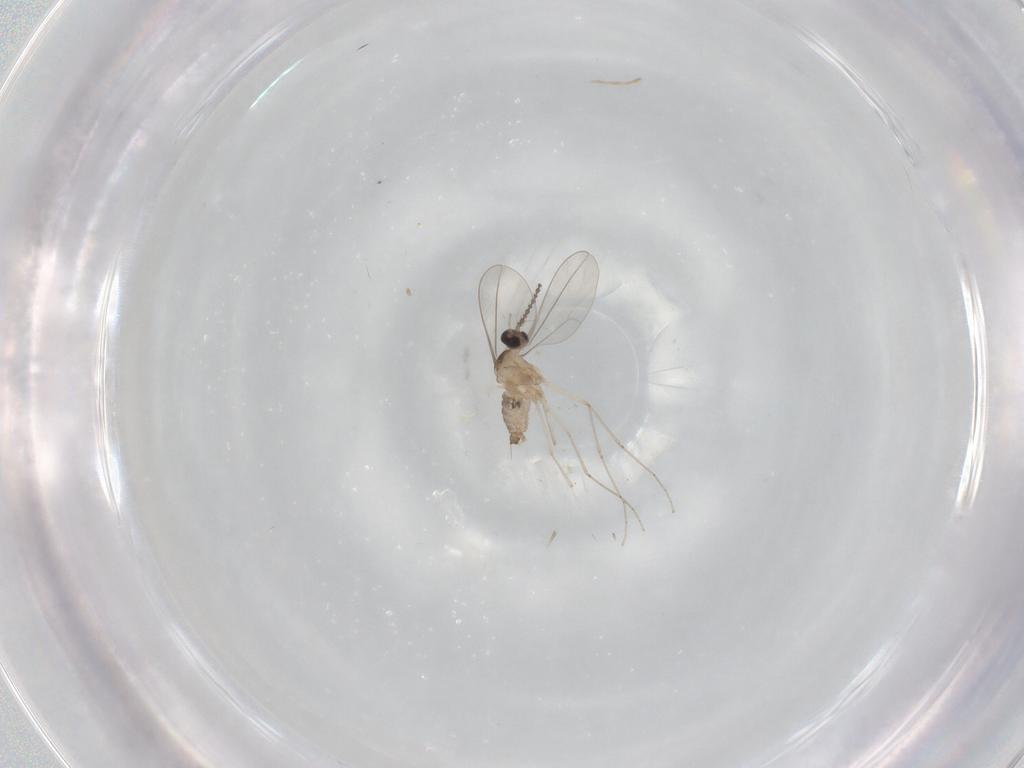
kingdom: Animalia
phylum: Arthropoda
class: Insecta
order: Diptera
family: Cecidomyiidae
